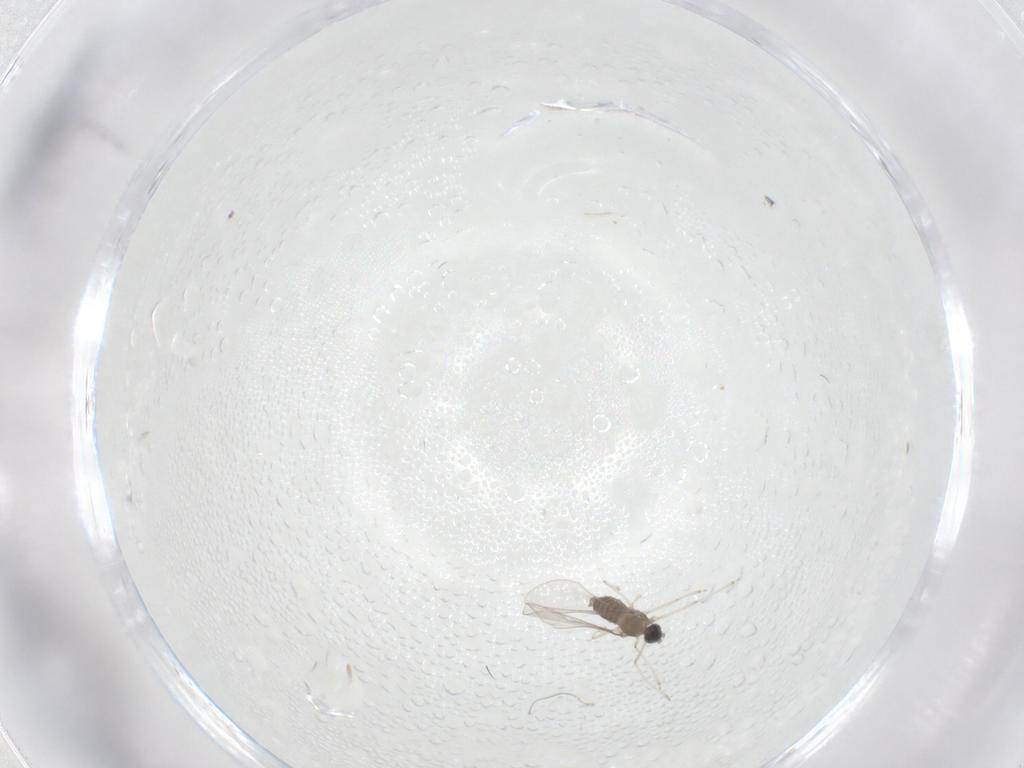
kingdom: Animalia
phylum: Arthropoda
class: Insecta
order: Diptera
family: Cecidomyiidae
